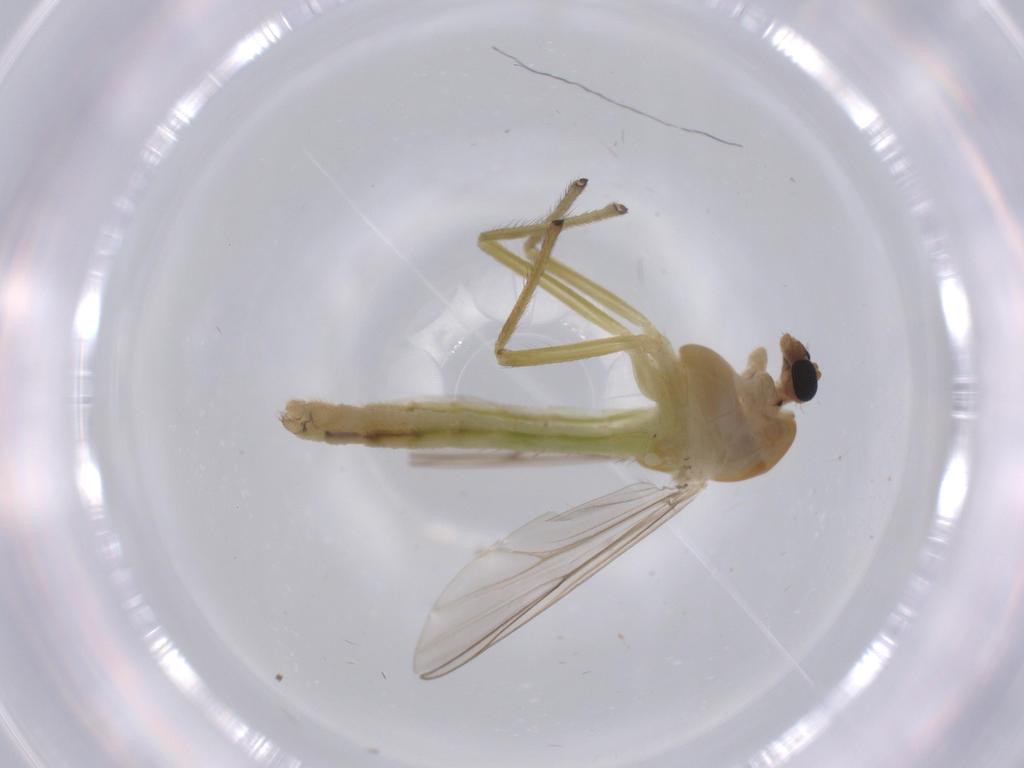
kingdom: Animalia
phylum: Arthropoda
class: Insecta
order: Diptera
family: Chironomidae
